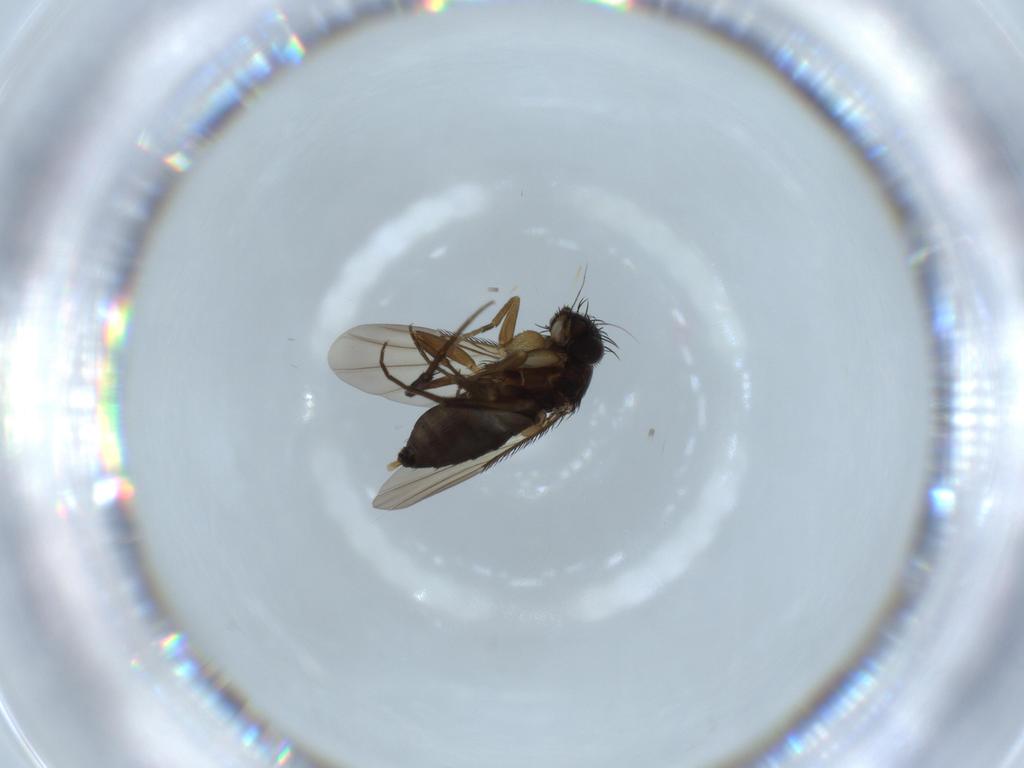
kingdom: Animalia
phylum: Arthropoda
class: Insecta
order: Diptera
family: Phoridae
